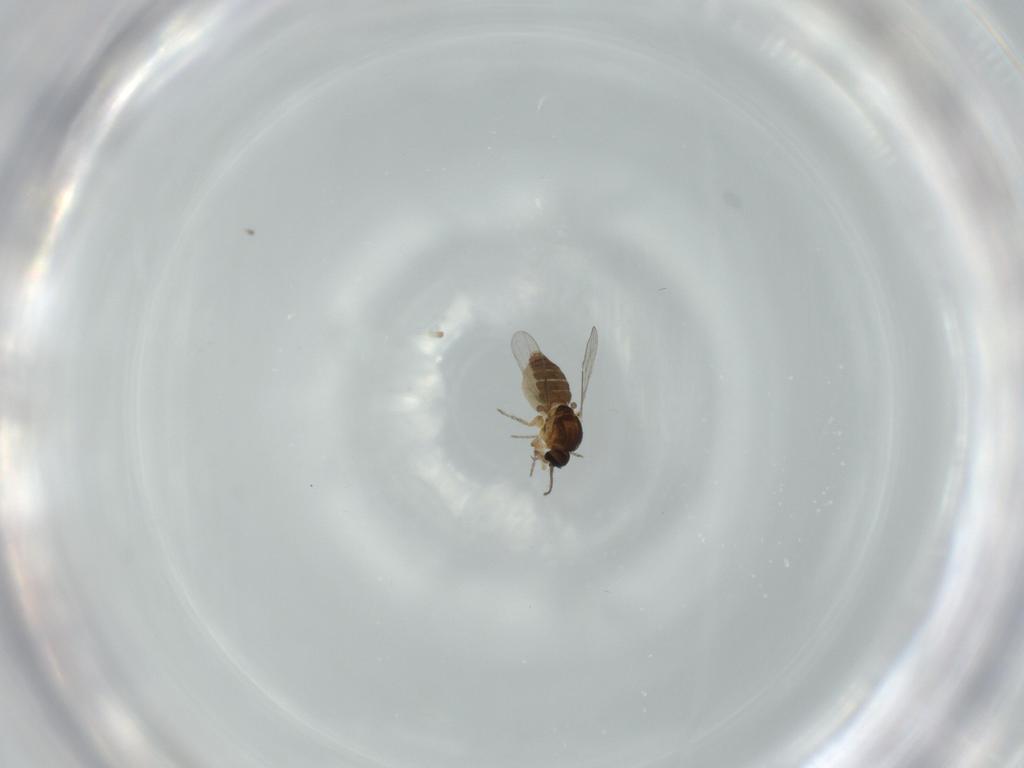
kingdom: Animalia
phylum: Arthropoda
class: Insecta
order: Diptera
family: Ceratopogonidae
